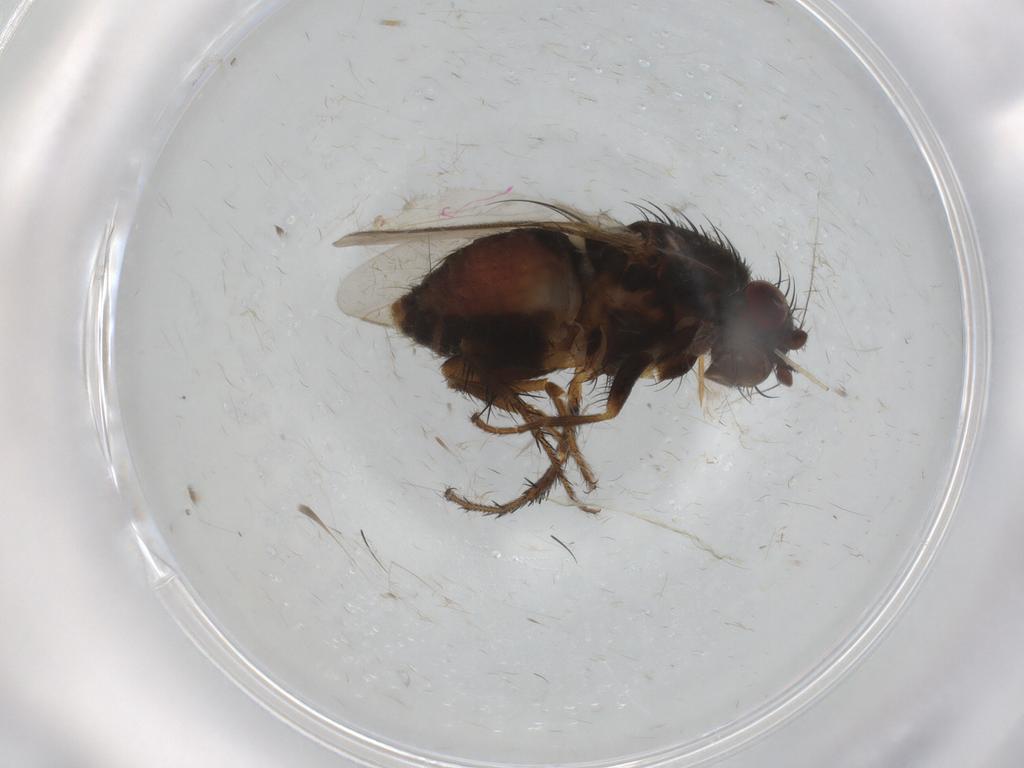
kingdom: Animalia
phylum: Arthropoda
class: Insecta
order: Diptera
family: Sphaeroceridae
